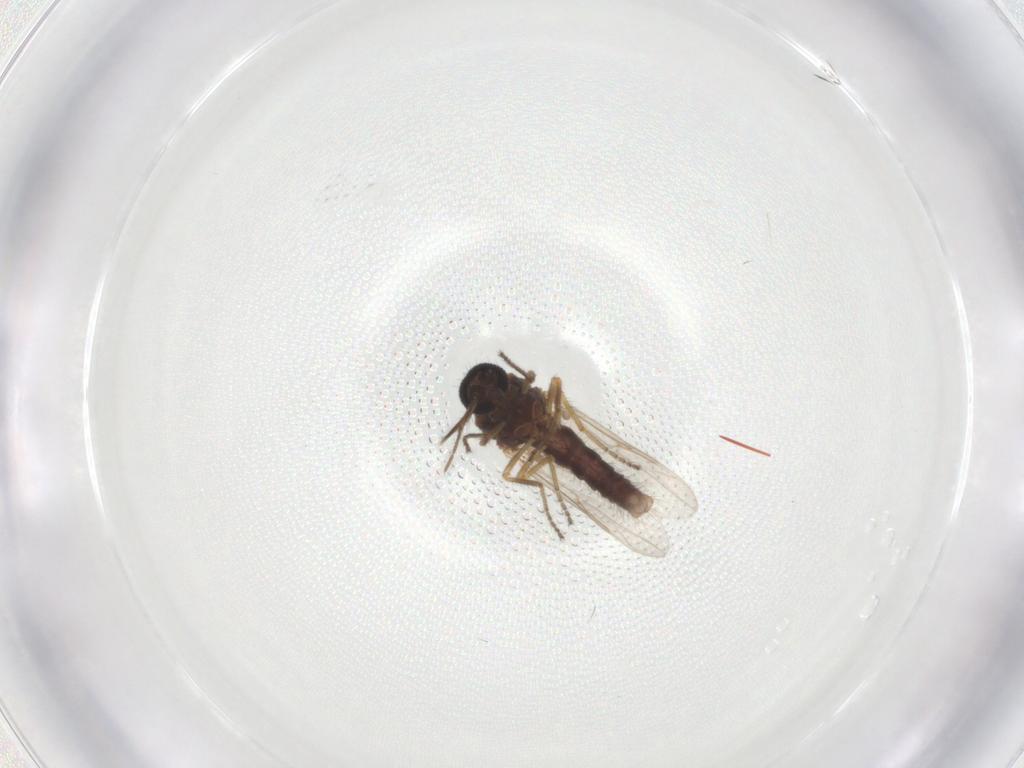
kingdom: Animalia
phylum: Arthropoda
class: Insecta
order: Diptera
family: Ceratopogonidae
